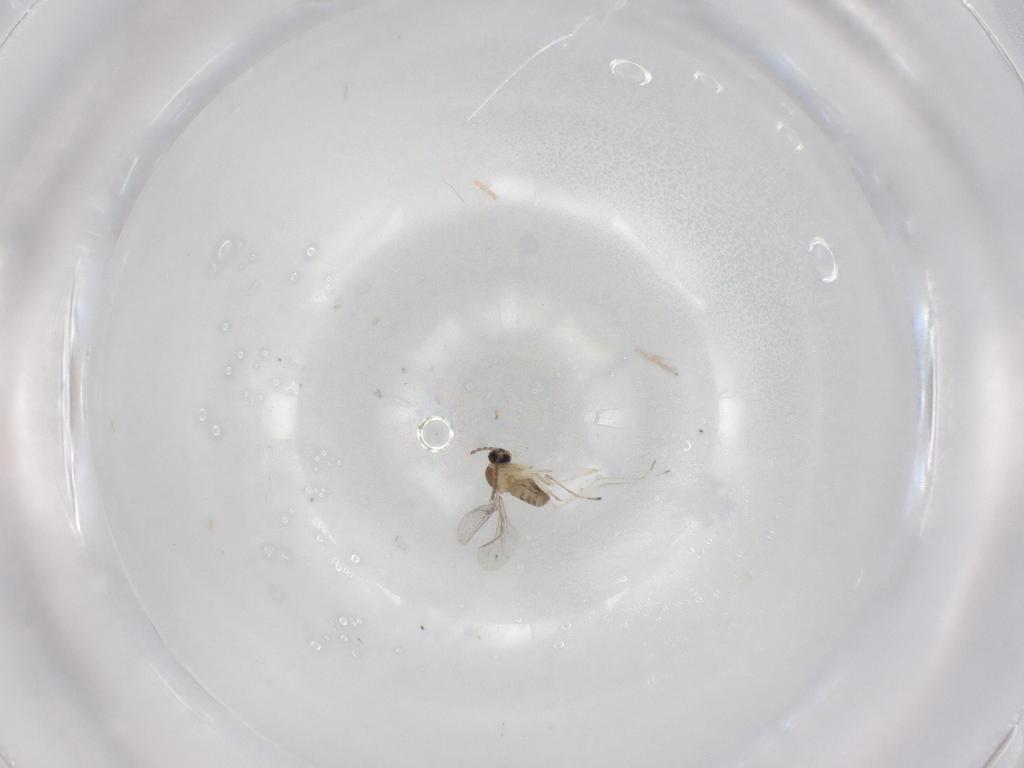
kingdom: Animalia
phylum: Arthropoda
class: Insecta
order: Diptera
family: Cecidomyiidae
